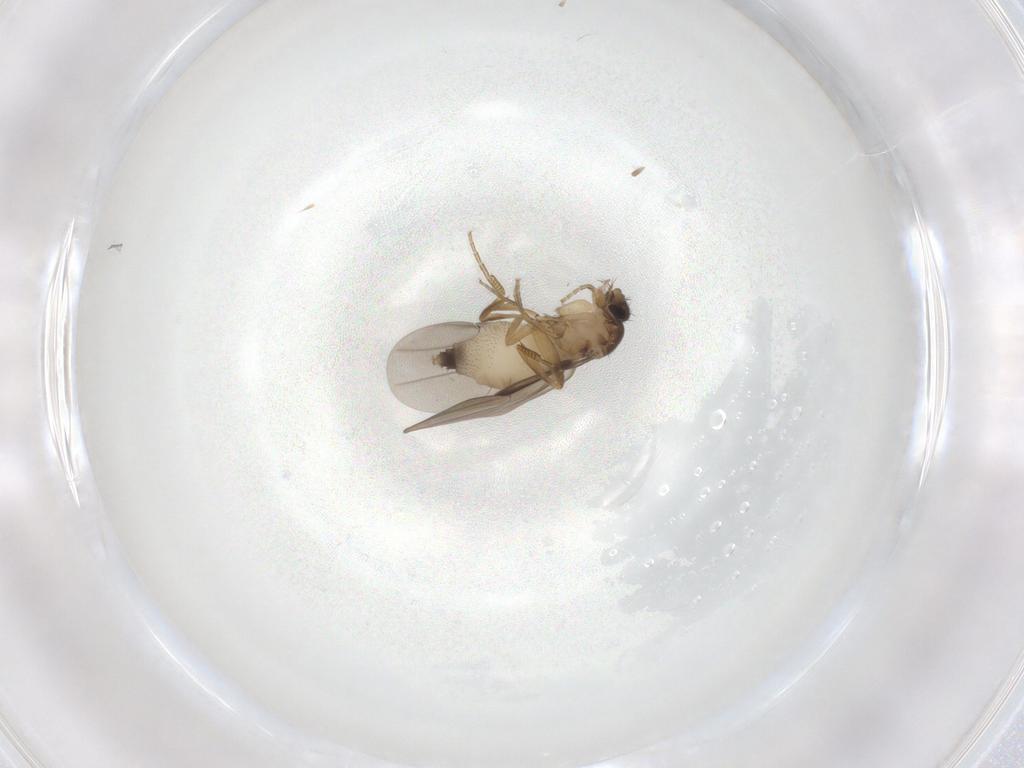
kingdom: Animalia
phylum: Arthropoda
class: Insecta
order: Diptera
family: Phoridae
